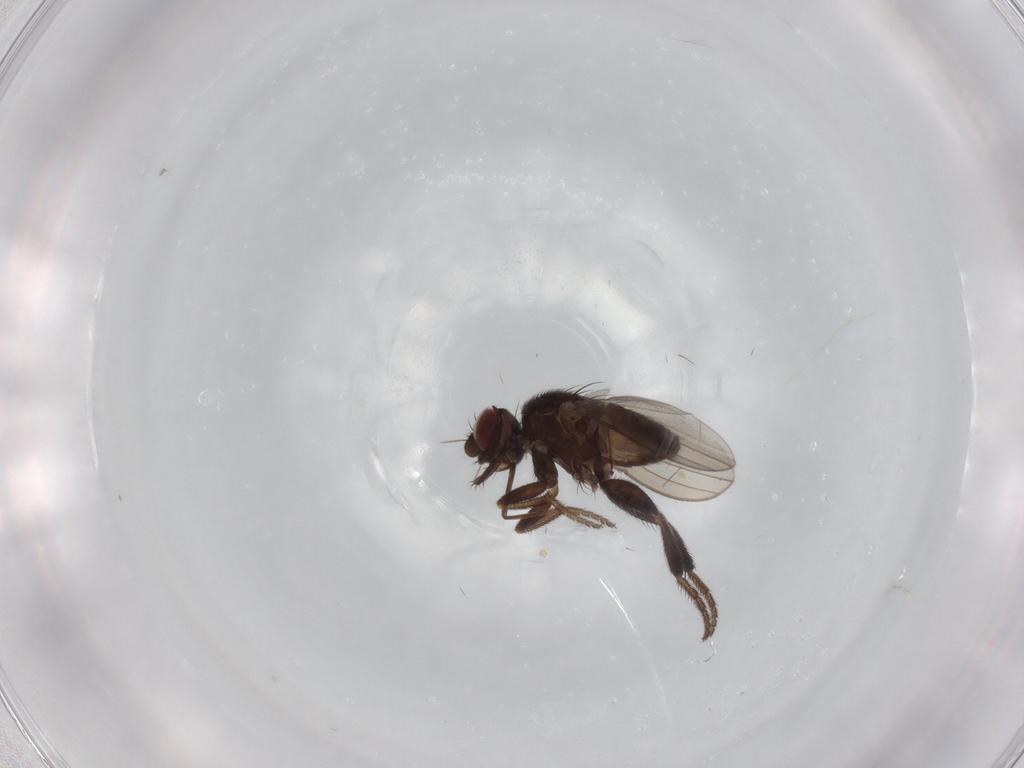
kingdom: Animalia
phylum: Arthropoda
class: Insecta
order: Diptera
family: Milichiidae
